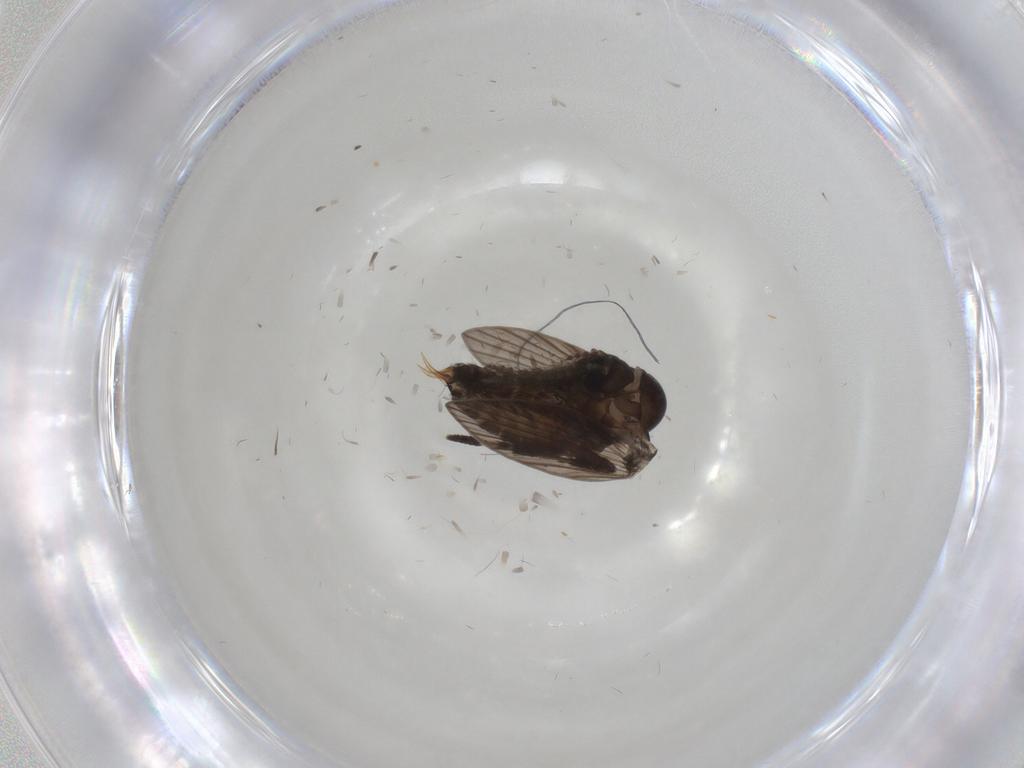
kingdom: Animalia
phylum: Arthropoda
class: Insecta
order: Diptera
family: Psychodidae
